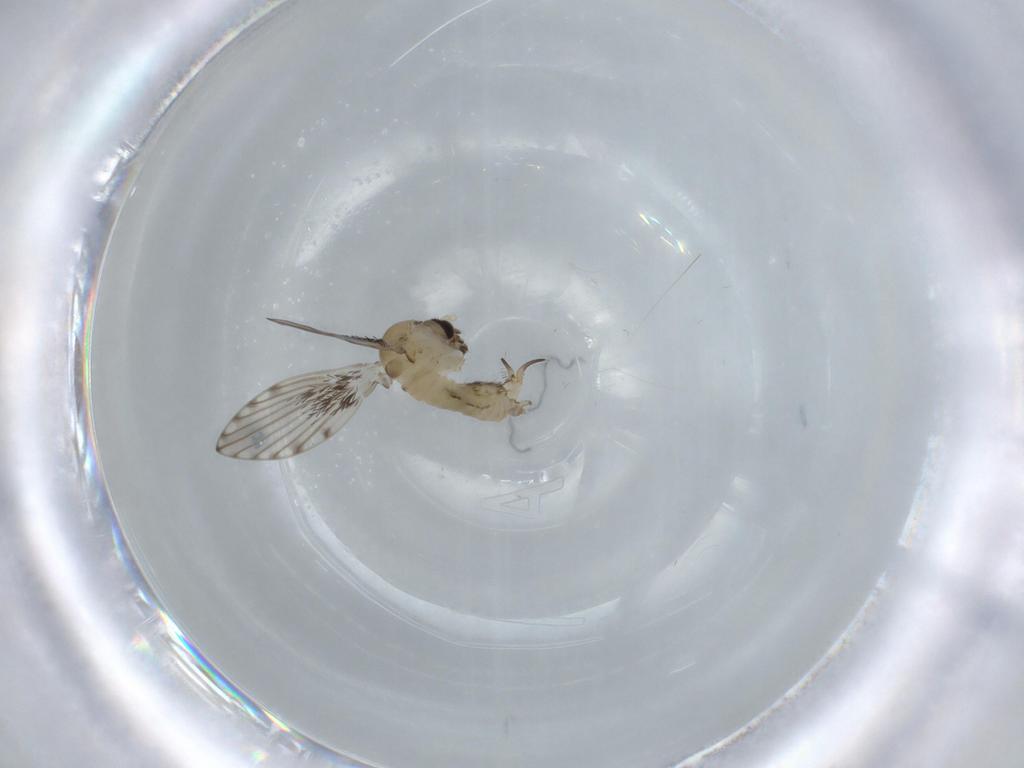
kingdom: Animalia
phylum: Arthropoda
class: Insecta
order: Diptera
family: Psychodidae
